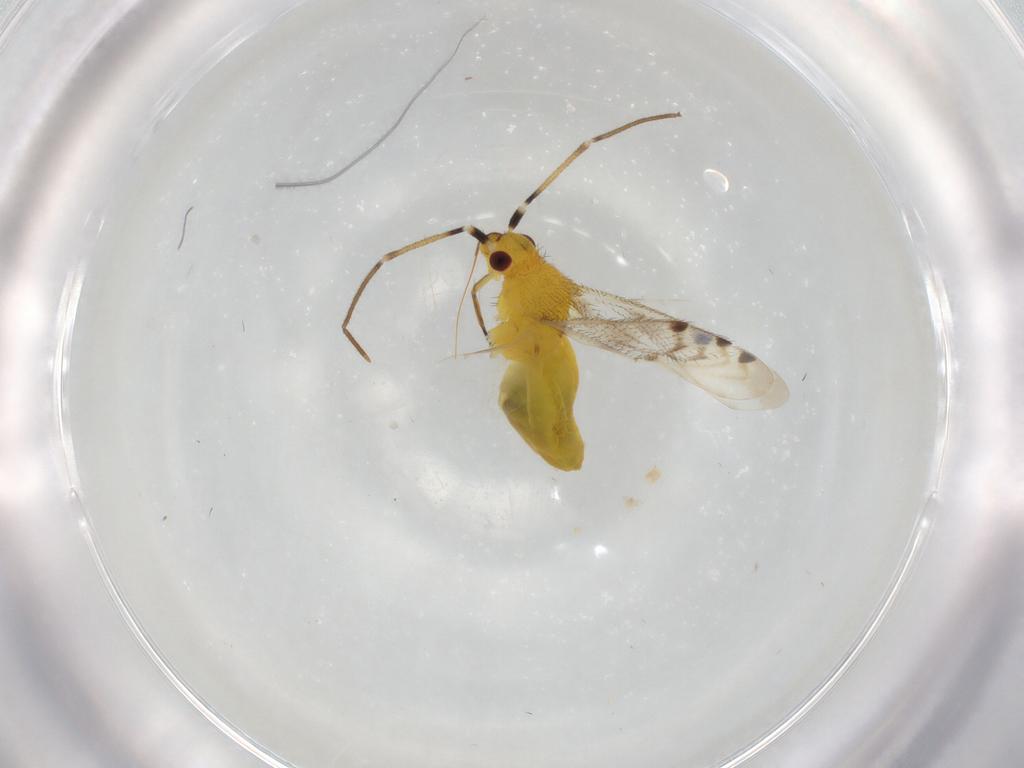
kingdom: Animalia
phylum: Arthropoda
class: Insecta
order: Hemiptera
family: Miridae
